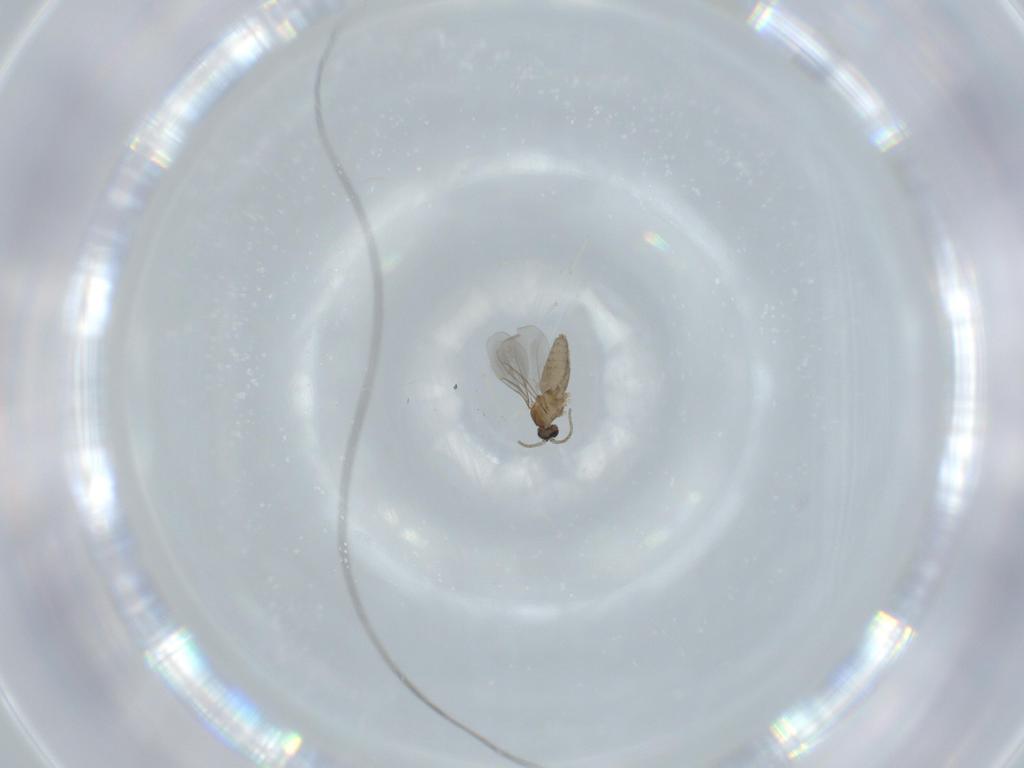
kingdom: Animalia
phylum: Arthropoda
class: Insecta
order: Diptera
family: Cecidomyiidae
